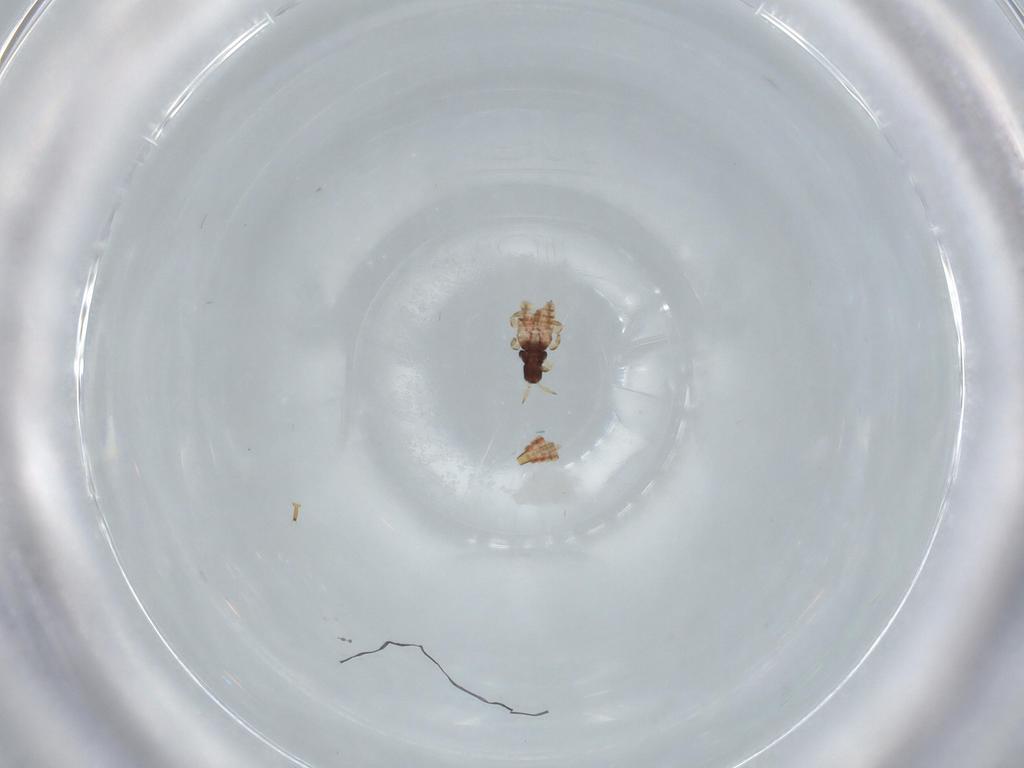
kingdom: Animalia
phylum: Arthropoda
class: Insecta
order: Thysanoptera
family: Phlaeothripidae
